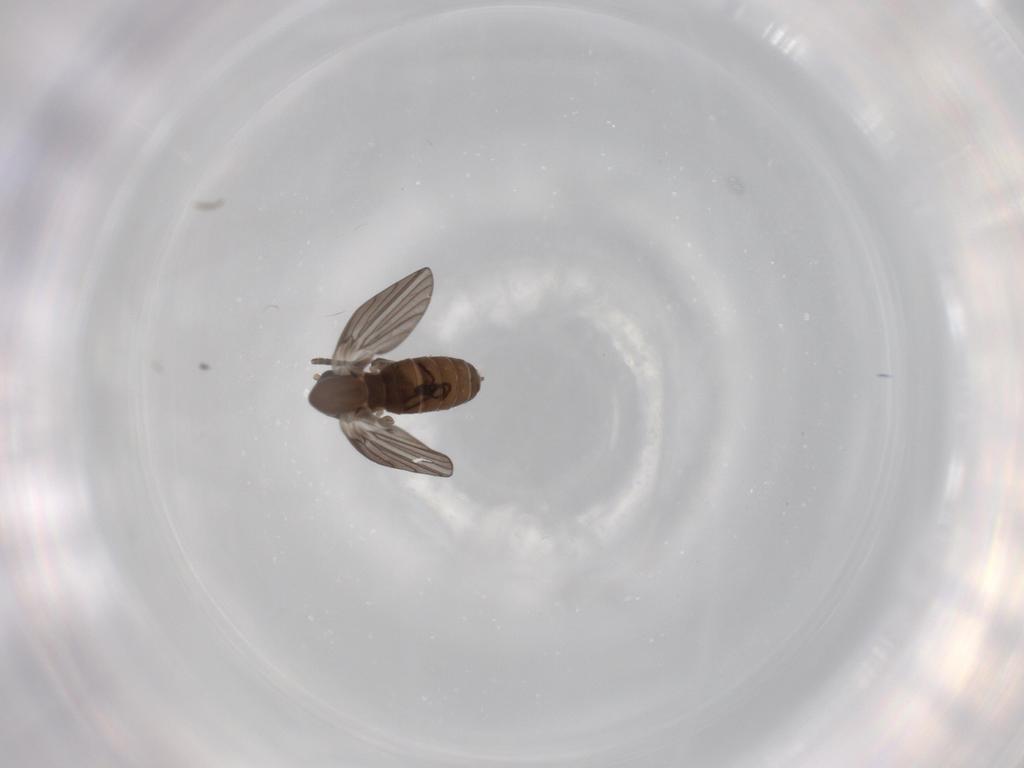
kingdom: Animalia
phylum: Arthropoda
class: Insecta
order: Diptera
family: Psychodidae
